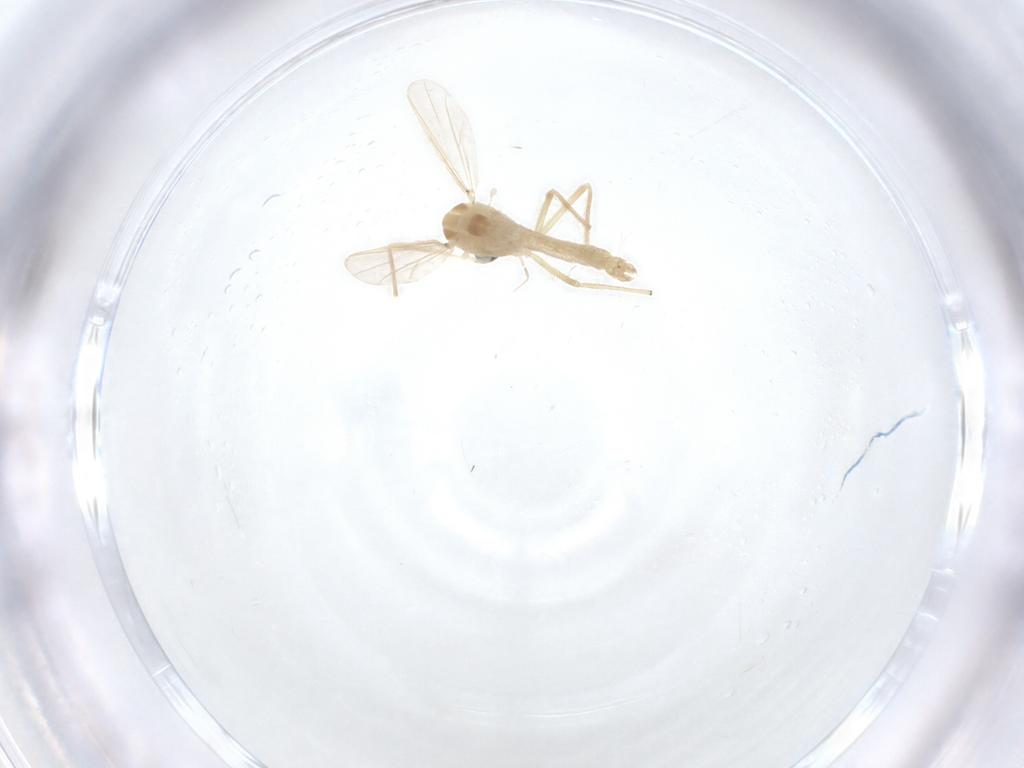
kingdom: Animalia
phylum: Arthropoda
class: Insecta
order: Diptera
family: Chironomidae
